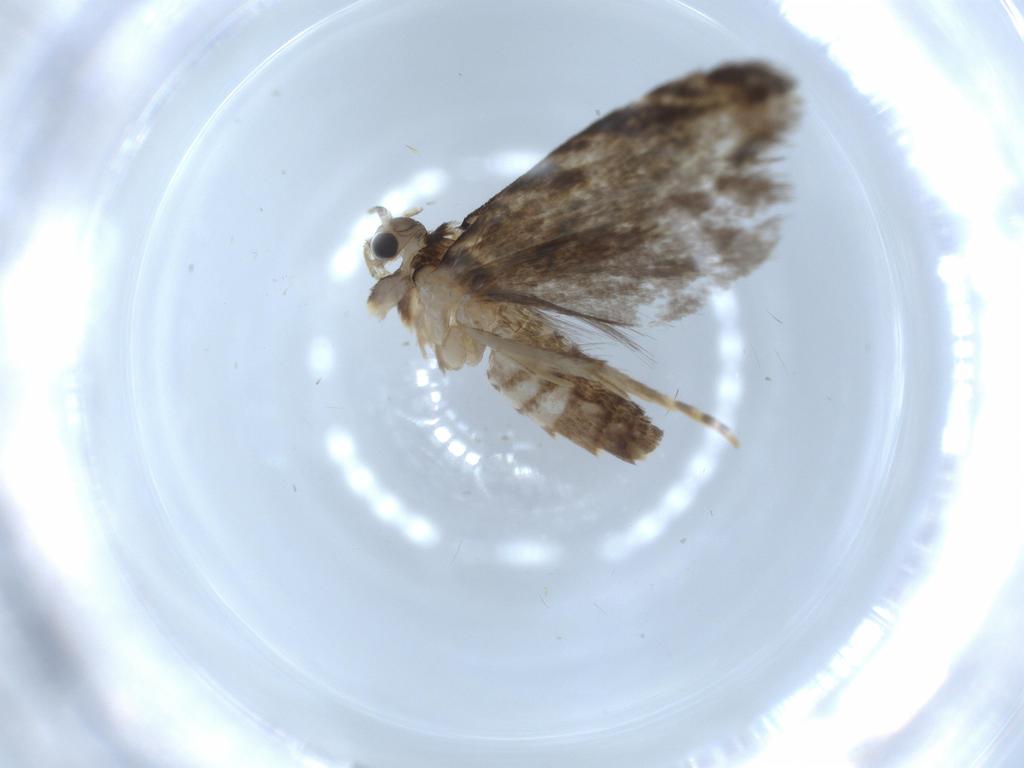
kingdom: Animalia
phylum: Arthropoda
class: Insecta
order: Lepidoptera
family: Tineidae
